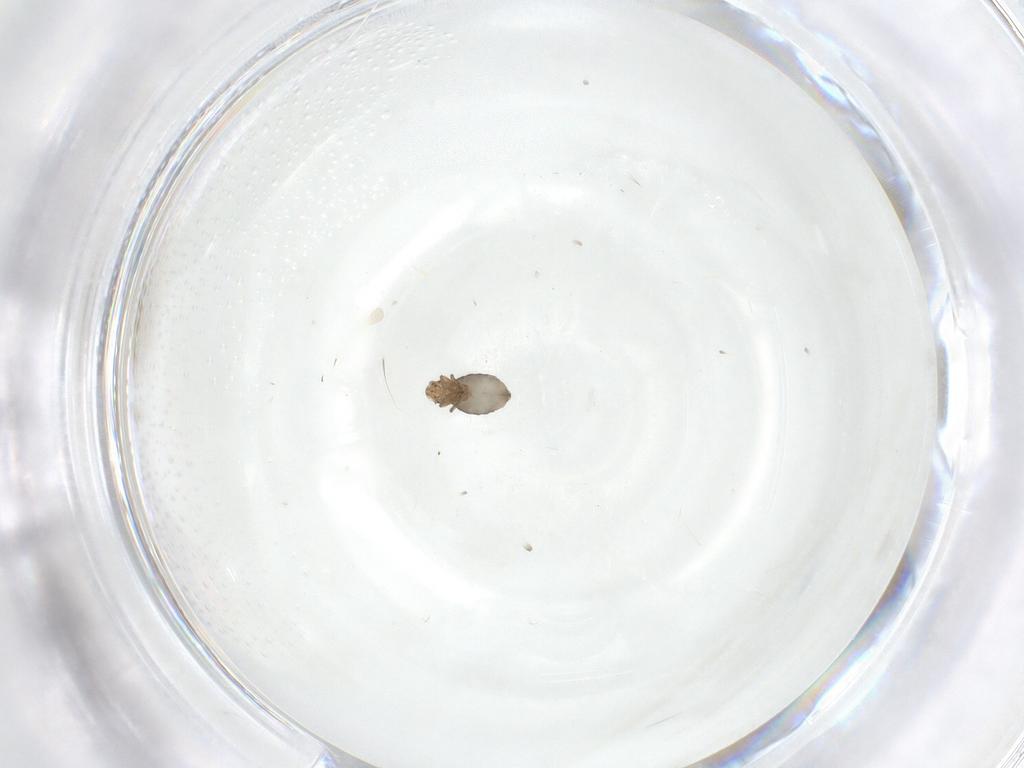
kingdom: Animalia
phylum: Arthropoda
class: Insecta
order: Diptera
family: Phoridae
